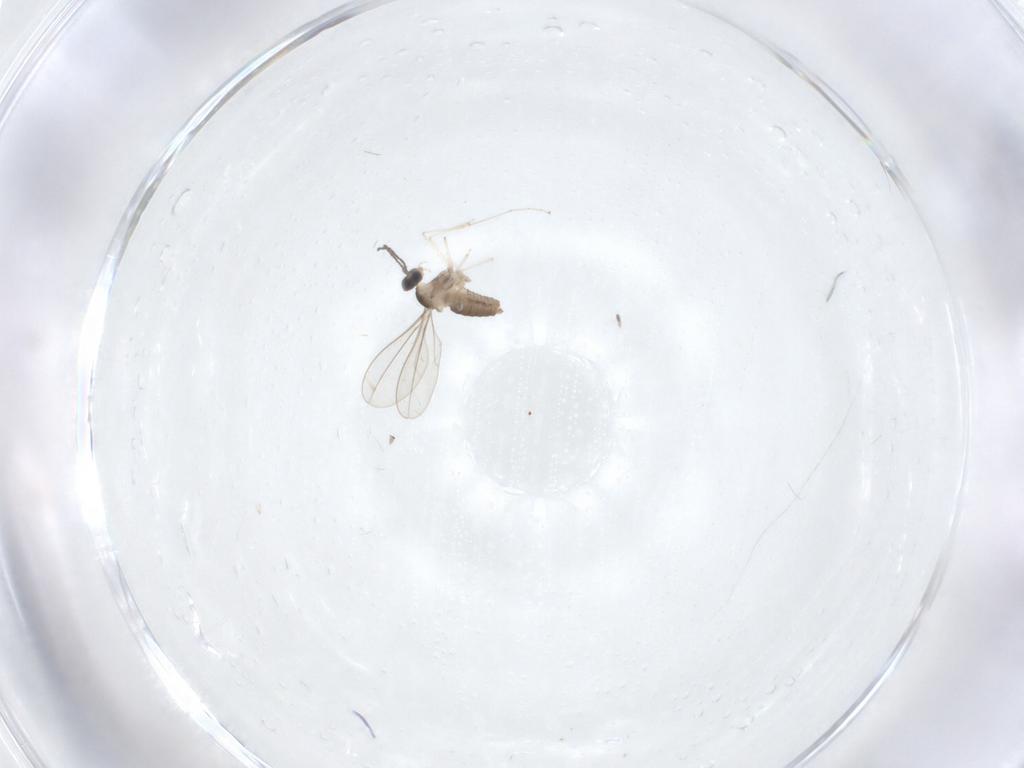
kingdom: Animalia
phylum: Arthropoda
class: Insecta
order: Diptera
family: Cecidomyiidae
